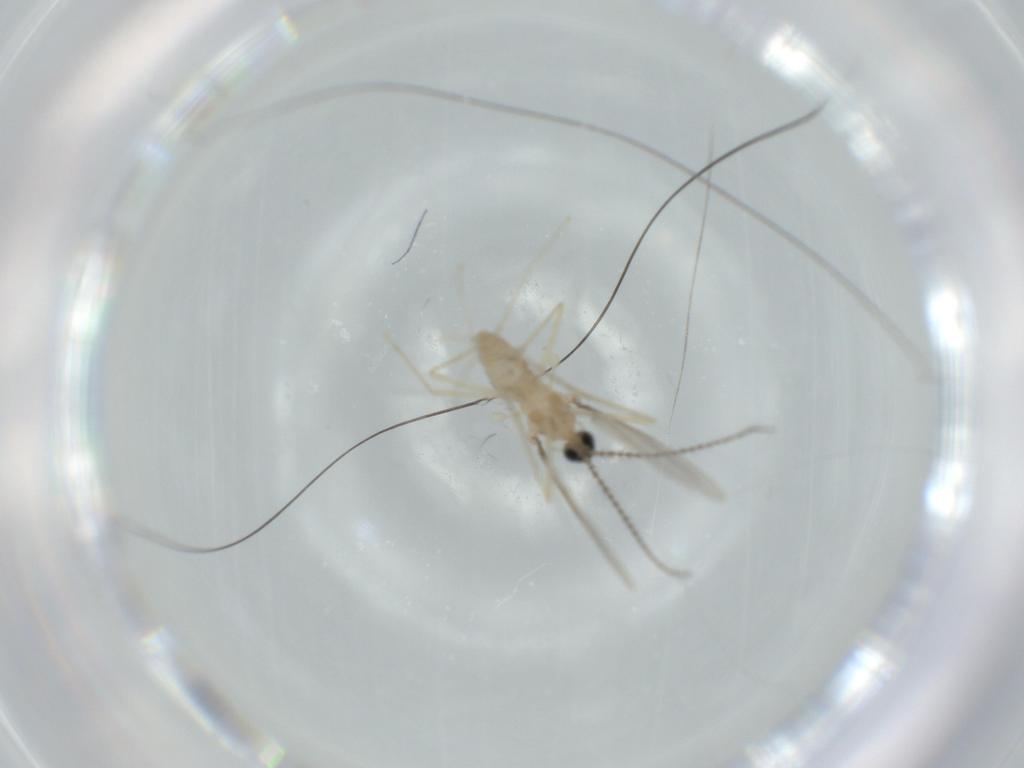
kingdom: Animalia
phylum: Arthropoda
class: Insecta
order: Diptera
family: Cecidomyiidae
